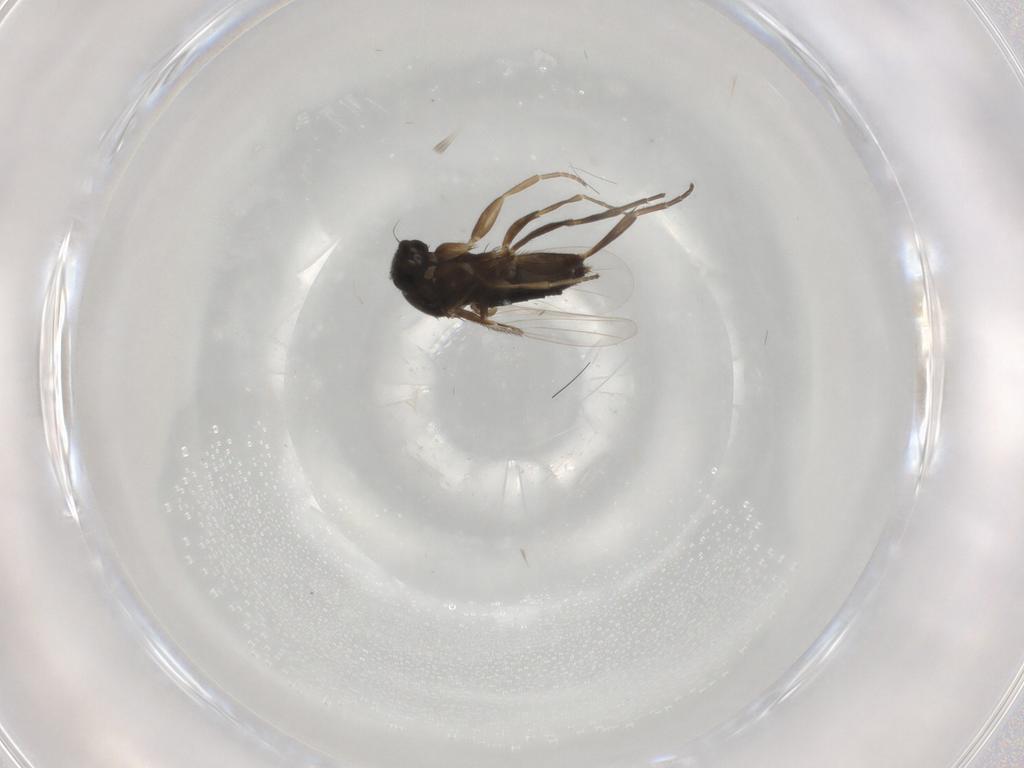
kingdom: Animalia
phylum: Arthropoda
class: Insecta
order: Diptera
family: Phoridae
